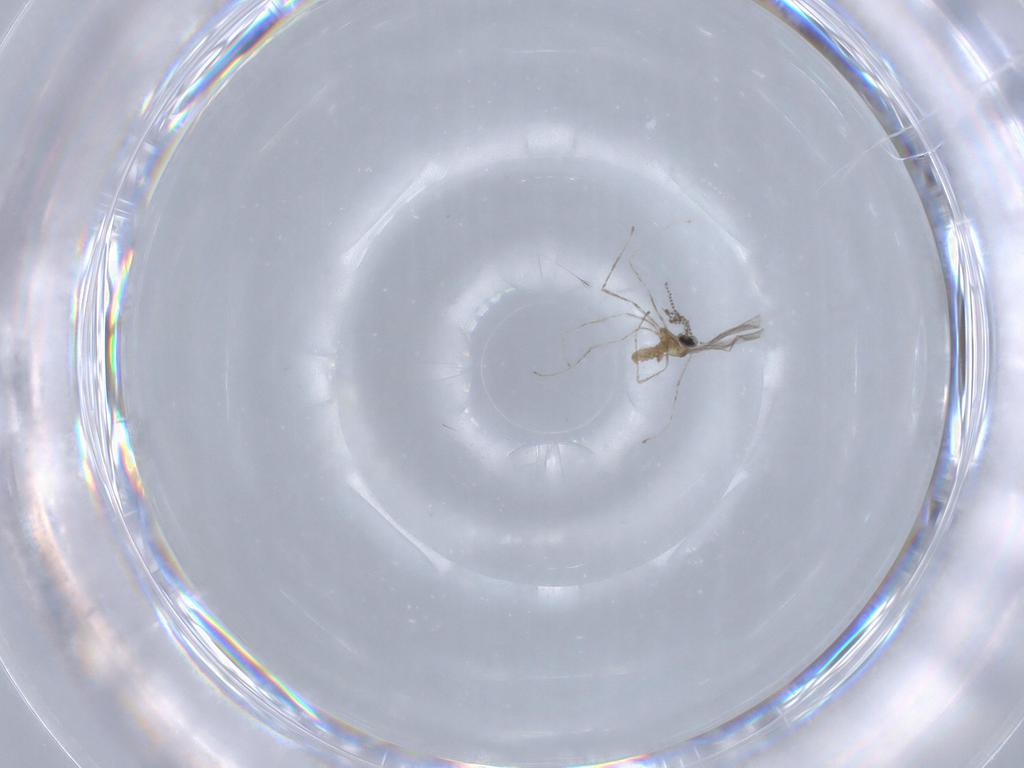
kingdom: Animalia
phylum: Arthropoda
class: Insecta
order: Diptera
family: Cecidomyiidae
